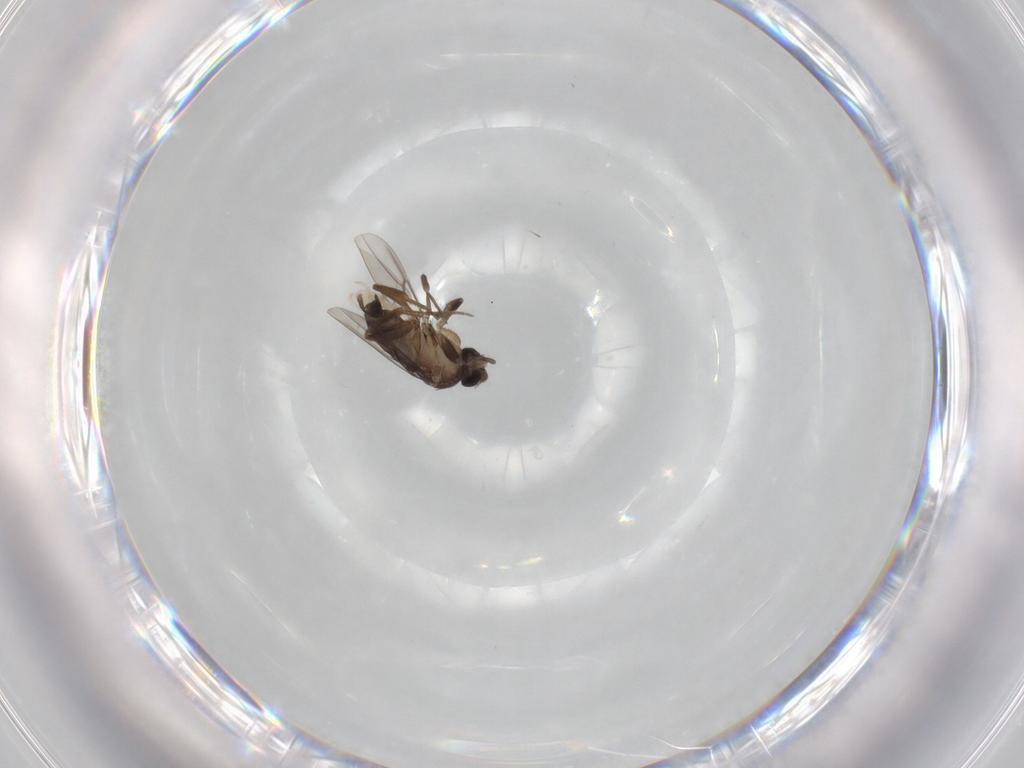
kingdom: Animalia
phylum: Arthropoda
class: Insecta
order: Diptera
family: Phoridae
